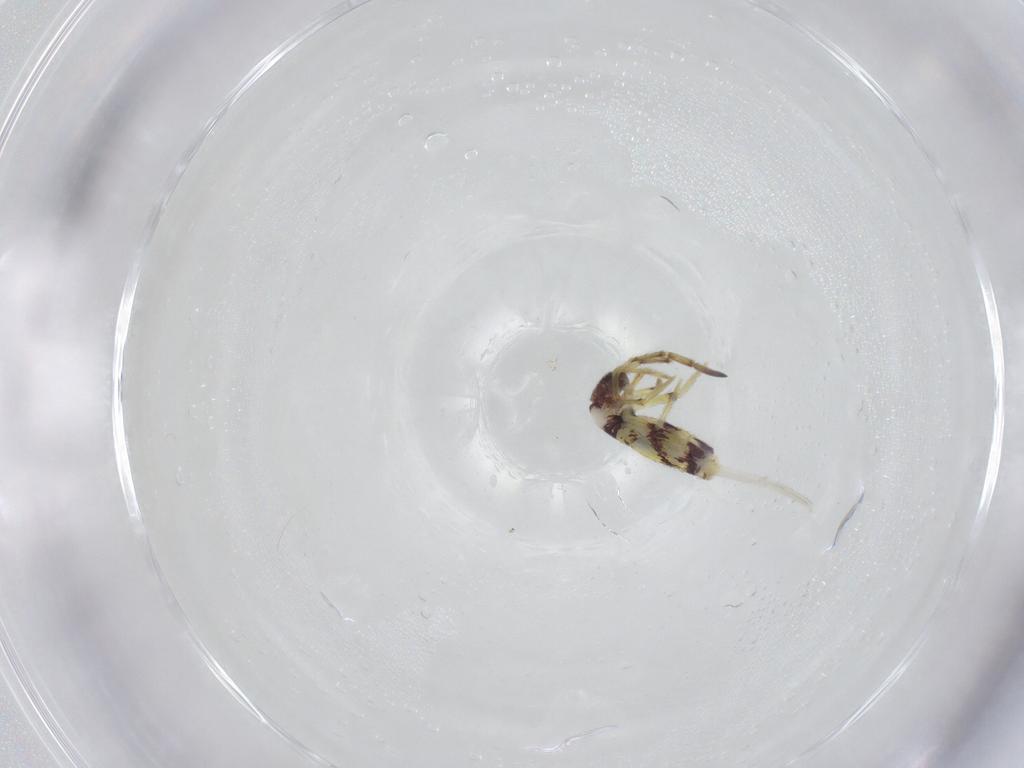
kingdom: Animalia
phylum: Arthropoda
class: Collembola
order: Entomobryomorpha
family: Entomobryidae
